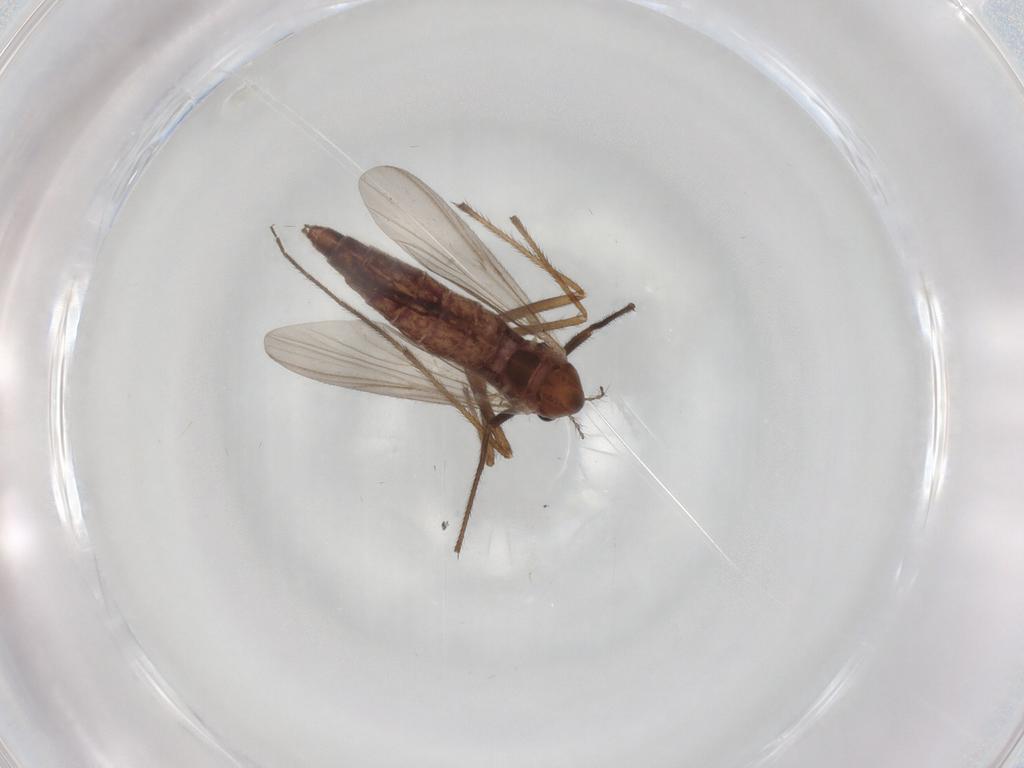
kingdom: Animalia
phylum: Arthropoda
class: Insecta
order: Diptera
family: Chironomidae
